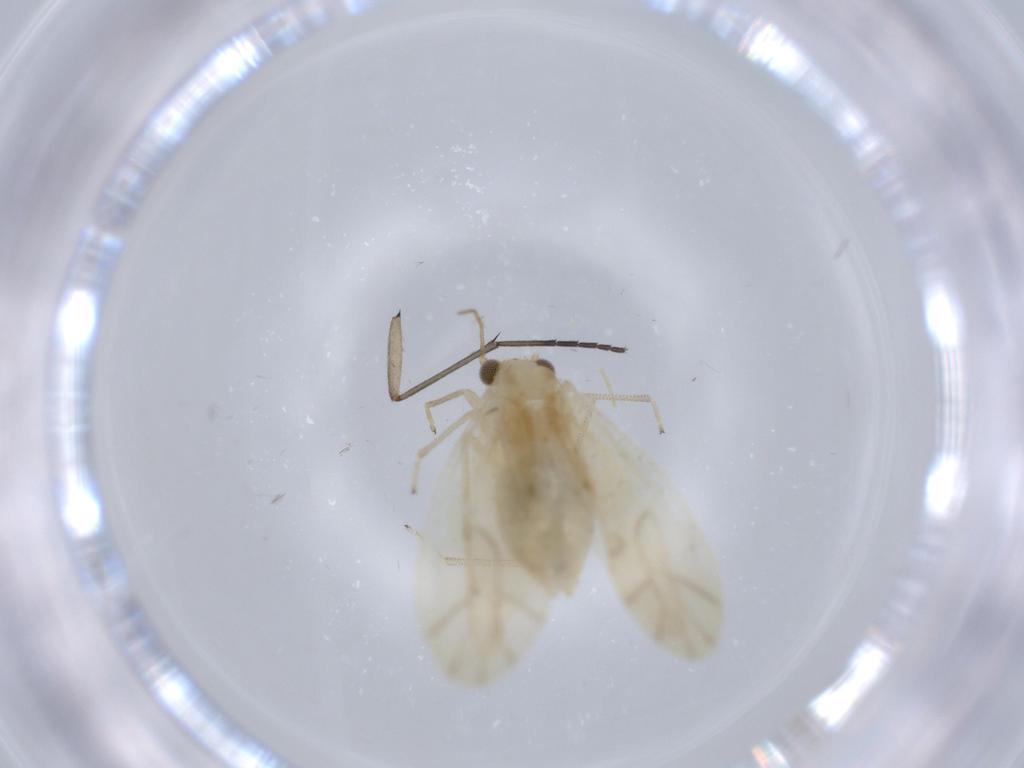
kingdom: Animalia
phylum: Arthropoda
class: Insecta
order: Psocodea
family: Caeciliusidae
